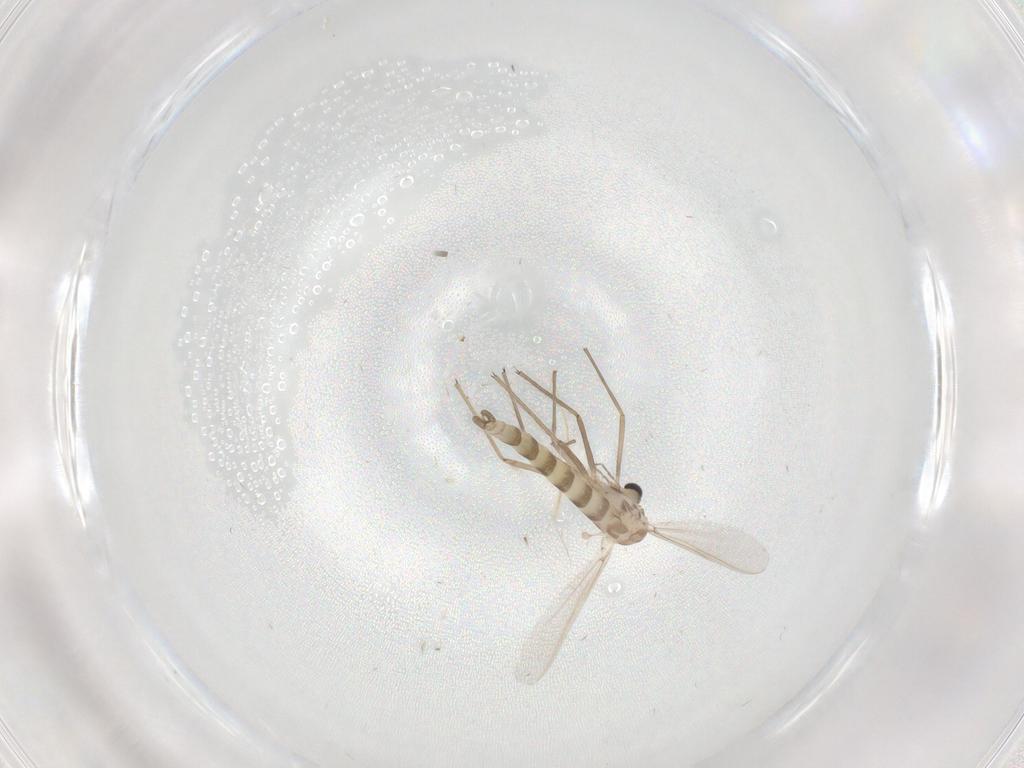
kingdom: Animalia
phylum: Arthropoda
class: Insecta
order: Diptera
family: Chironomidae
